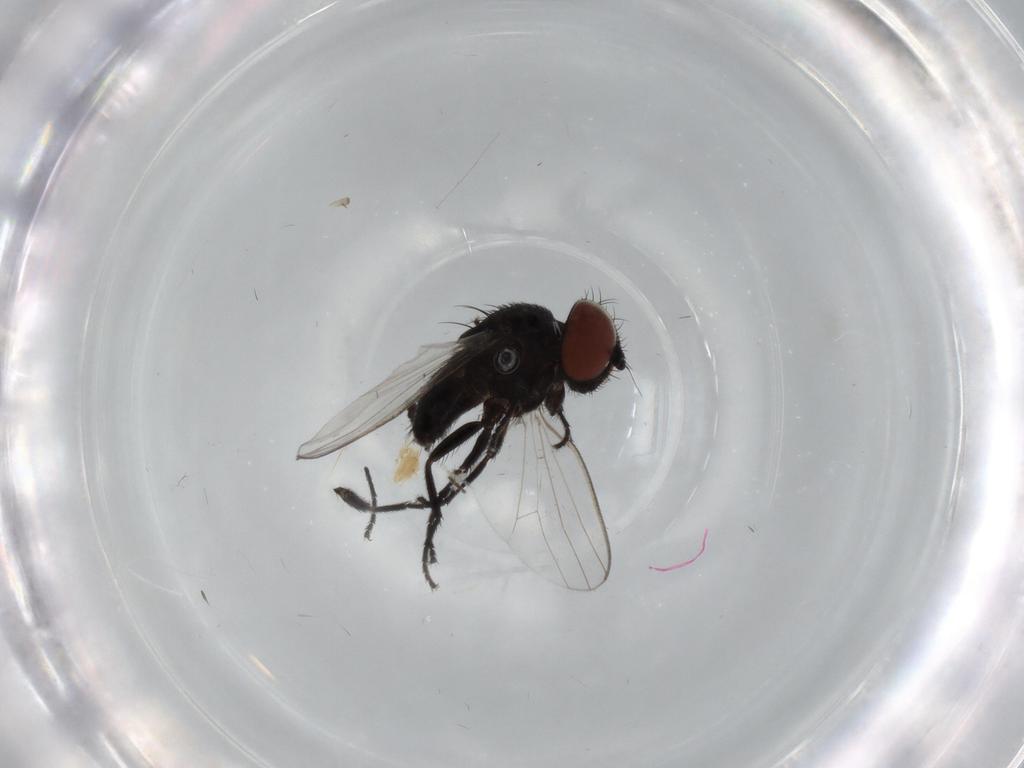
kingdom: Animalia
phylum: Arthropoda
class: Insecta
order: Diptera
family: Cecidomyiidae
